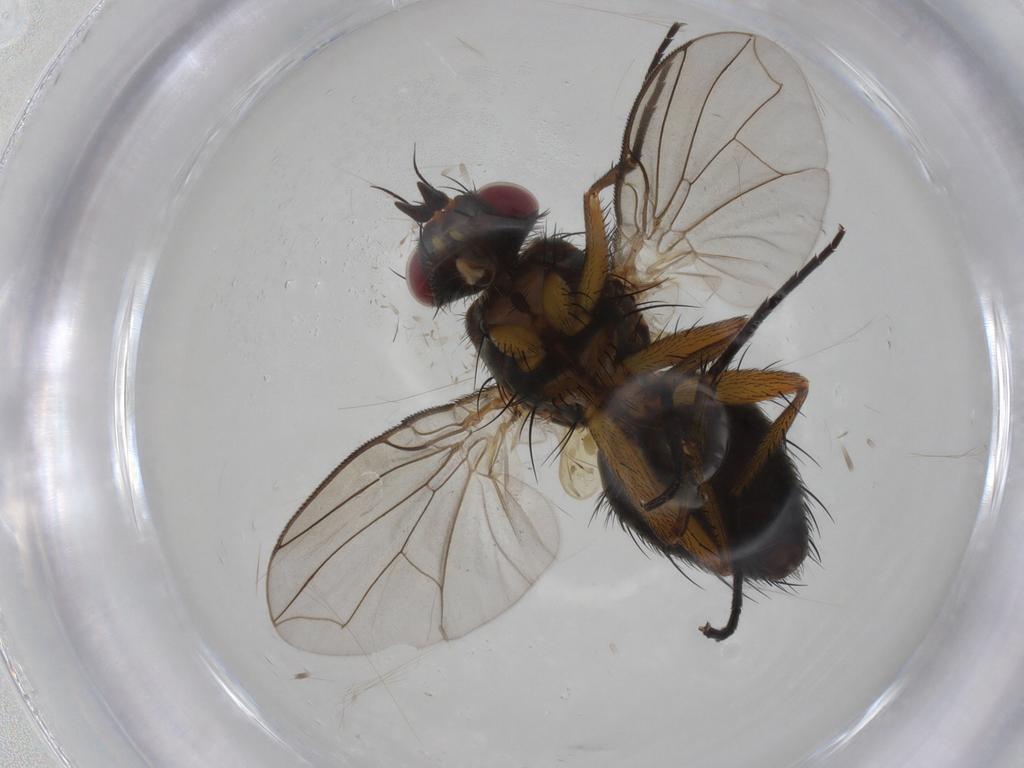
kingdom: Animalia
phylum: Arthropoda
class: Insecta
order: Diptera
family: Tachinidae
